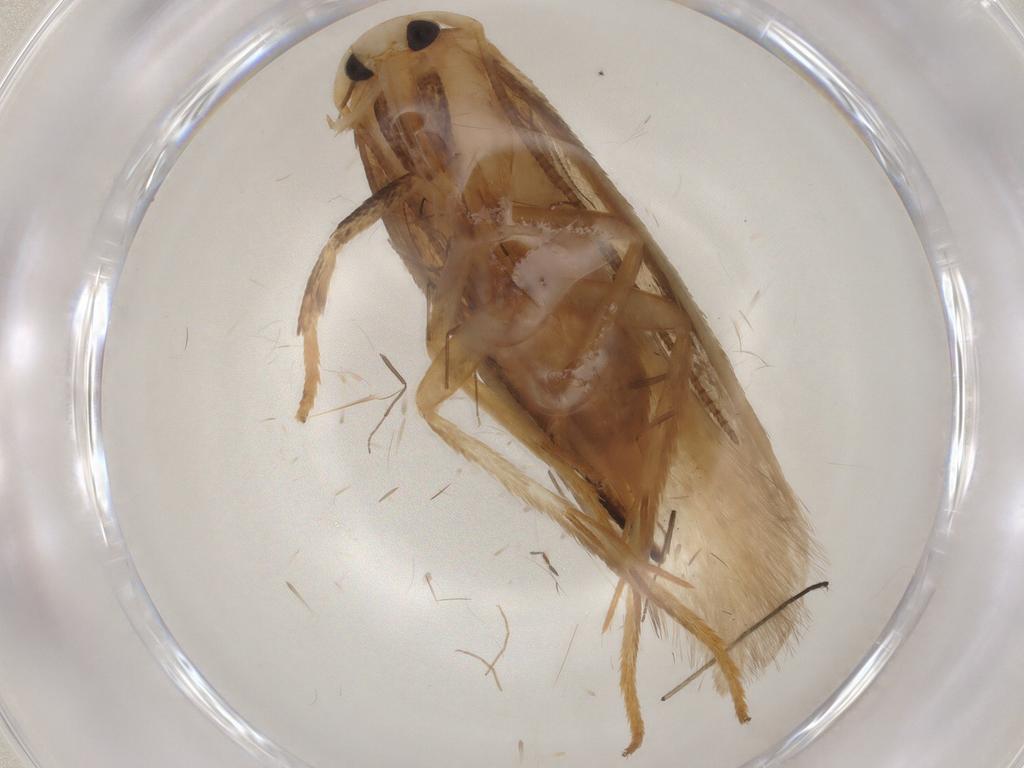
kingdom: Animalia
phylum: Arthropoda
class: Insecta
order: Lepidoptera
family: Geometridae
